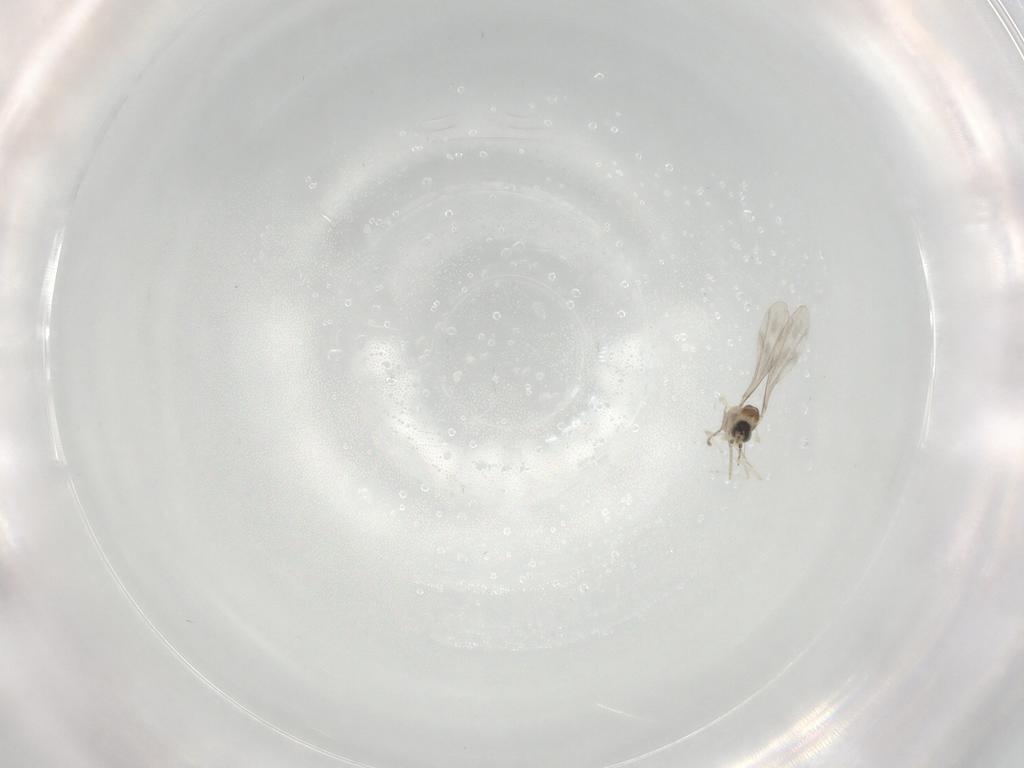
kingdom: Animalia
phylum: Arthropoda
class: Insecta
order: Diptera
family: Cecidomyiidae
